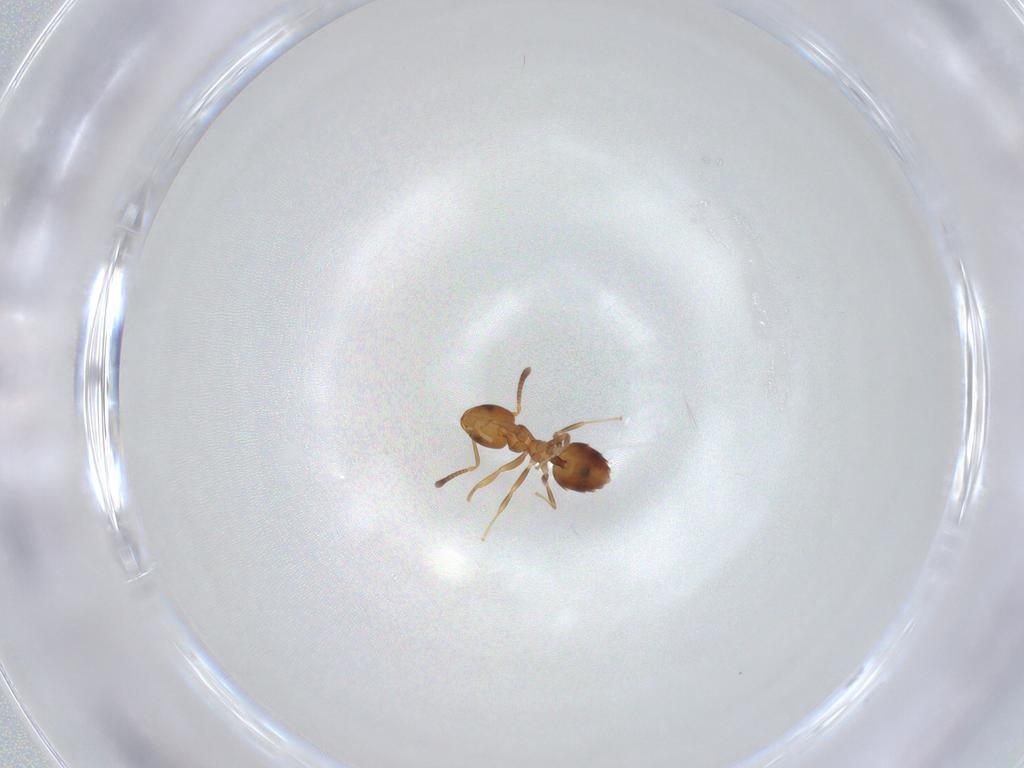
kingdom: Animalia
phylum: Arthropoda
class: Insecta
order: Hymenoptera
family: Formicidae
